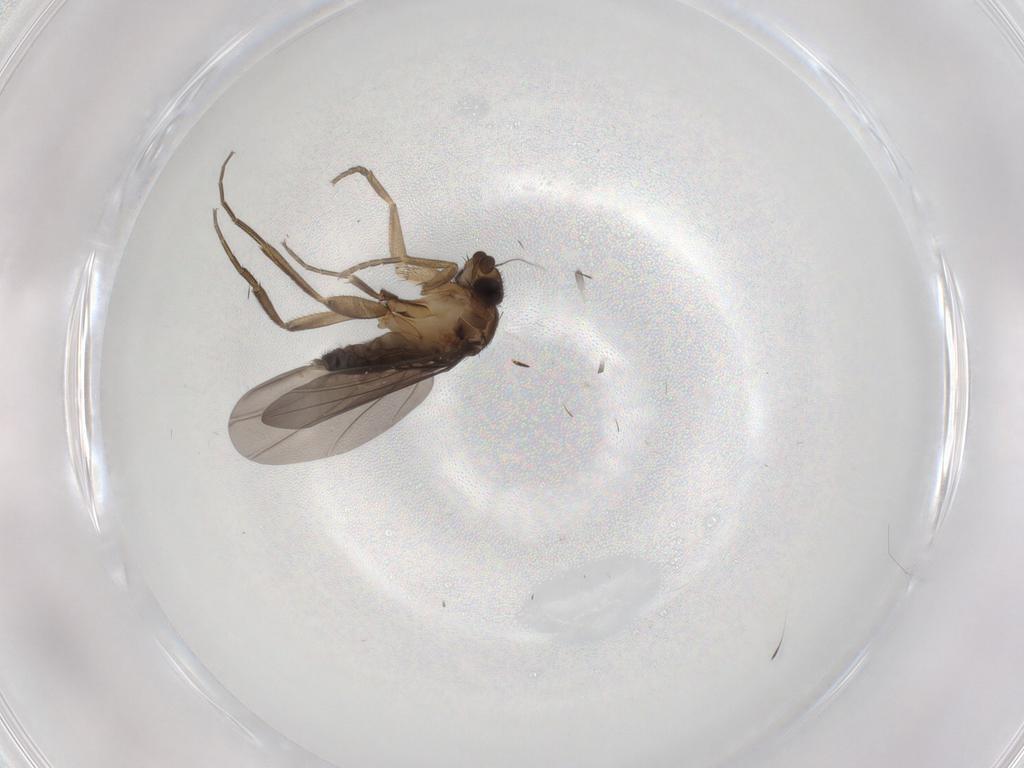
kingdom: Animalia
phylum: Arthropoda
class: Insecta
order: Diptera
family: Phoridae
